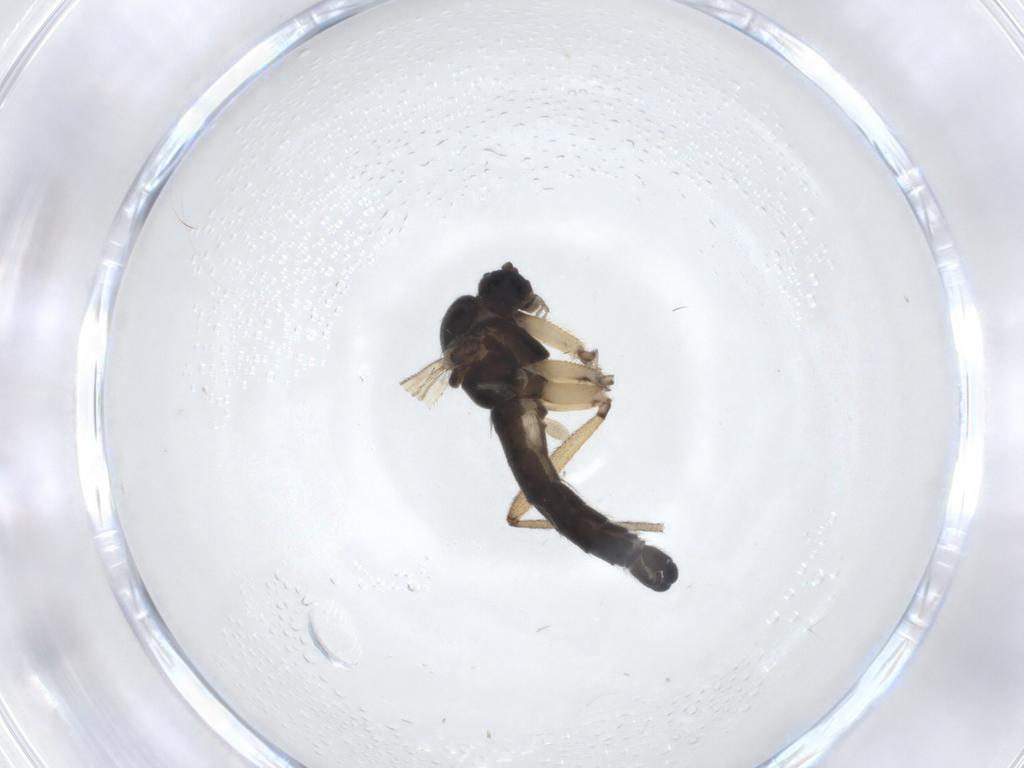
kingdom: Animalia
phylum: Arthropoda
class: Insecta
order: Diptera
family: Sciaridae
